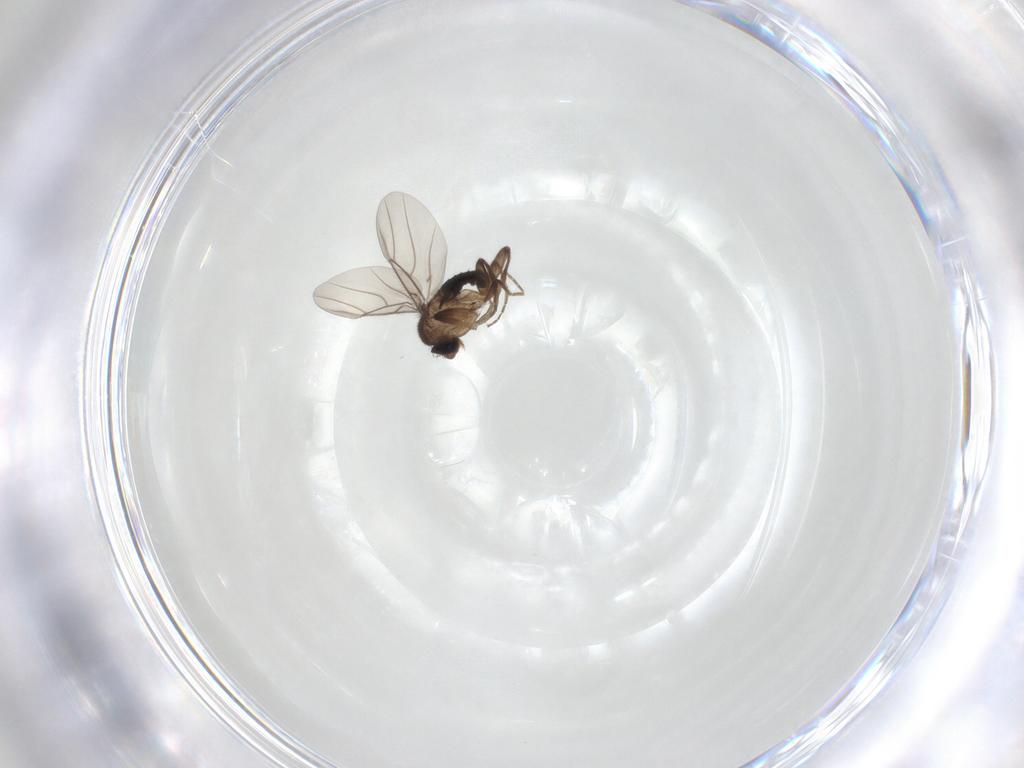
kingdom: Animalia
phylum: Arthropoda
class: Insecta
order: Diptera
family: Phoridae
